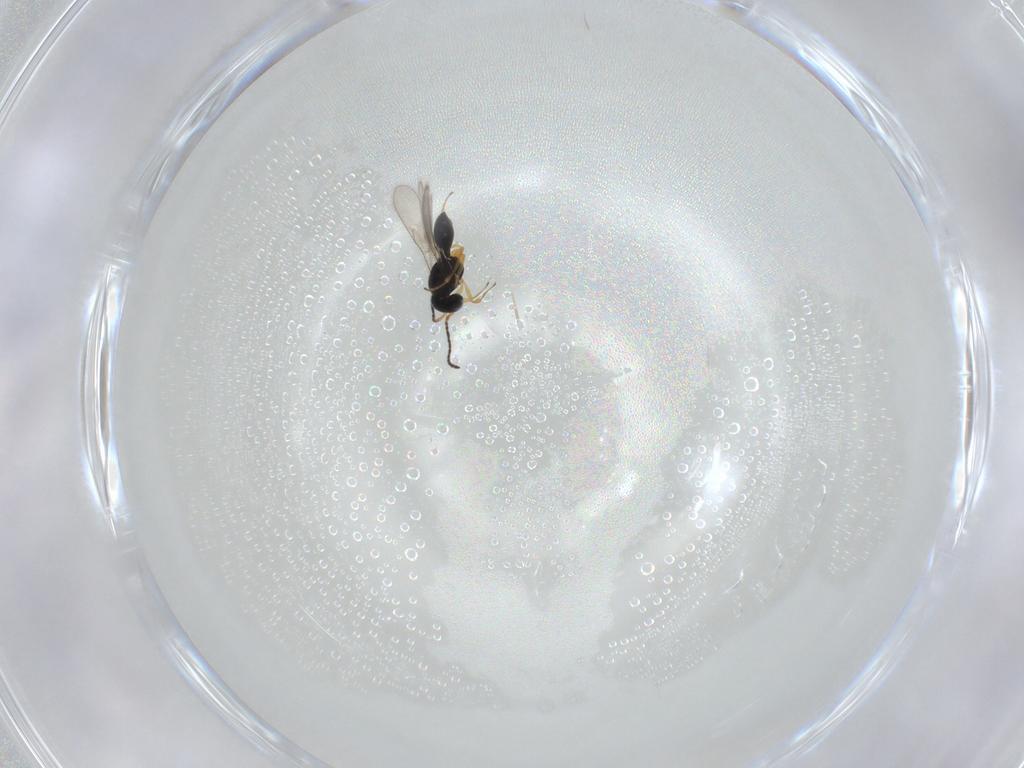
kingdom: Animalia
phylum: Arthropoda
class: Insecta
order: Hymenoptera
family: Scelionidae
